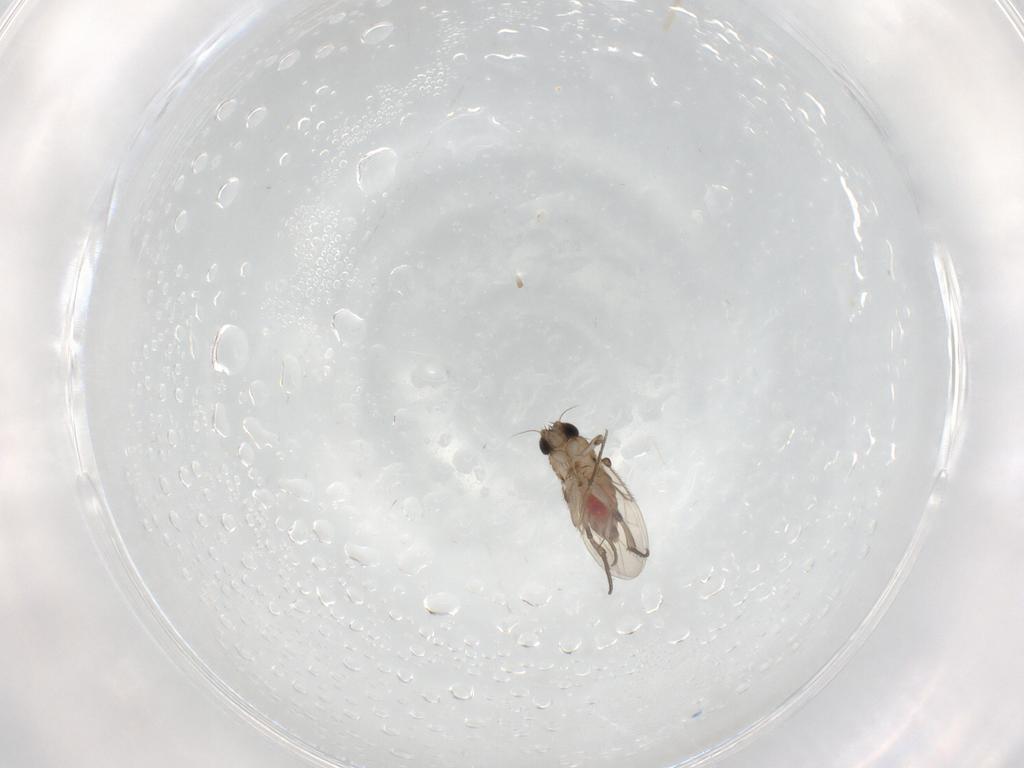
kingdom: Animalia
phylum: Arthropoda
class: Insecta
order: Diptera
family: Phoridae
